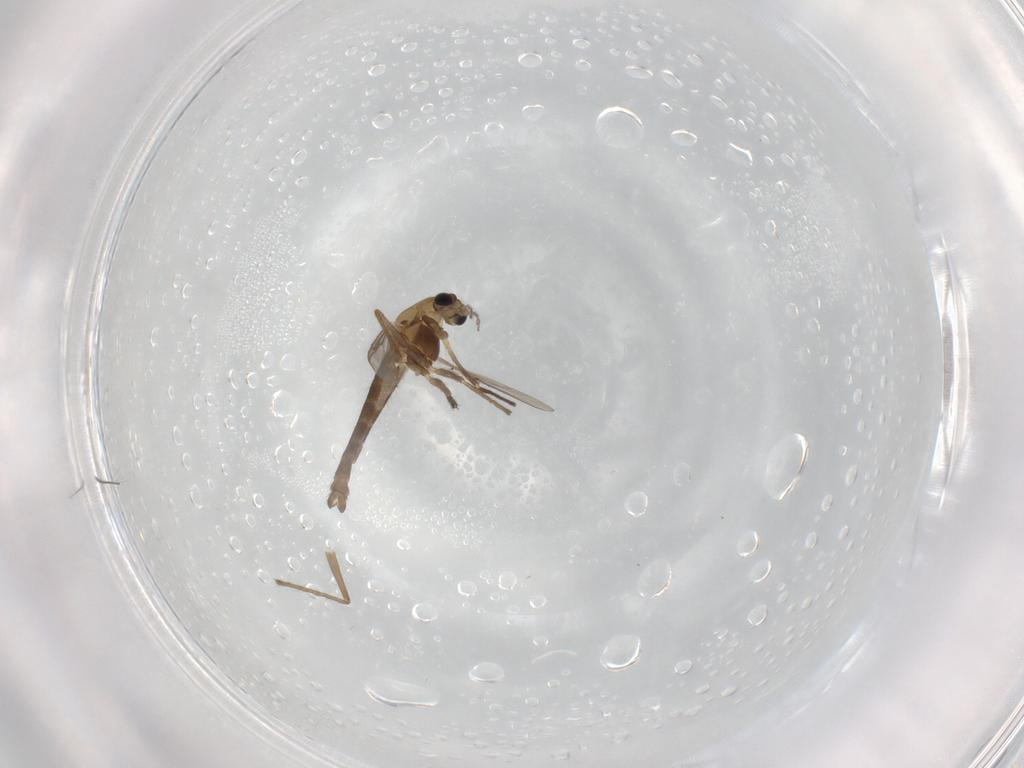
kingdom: Animalia
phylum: Arthropoda
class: Insecta
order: Diptera
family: Chironomidae
